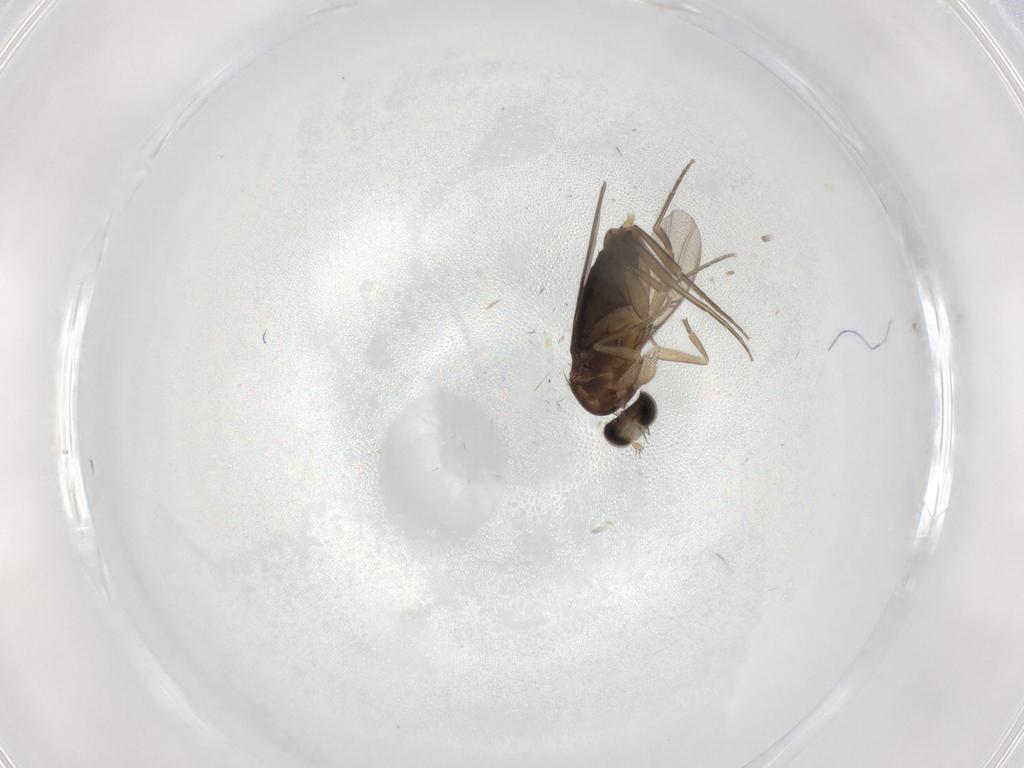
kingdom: Animalia
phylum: Arthropoda
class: Insecta
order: Diptera
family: Phoridae
